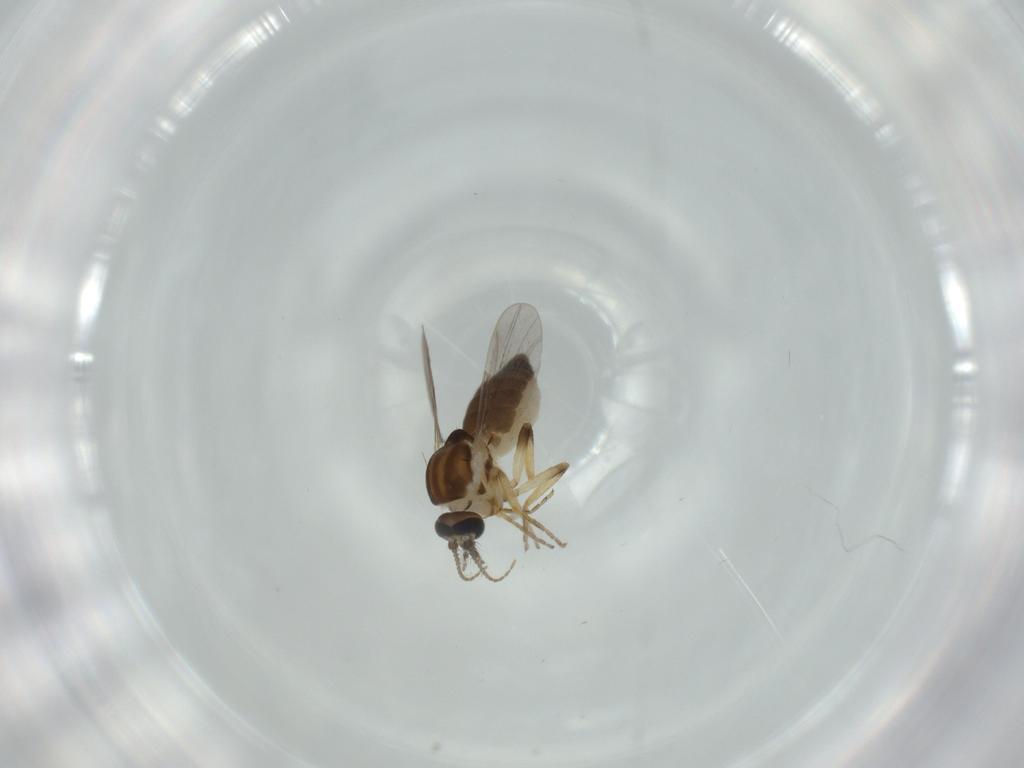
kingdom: Animalia
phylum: Arthropoda
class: Insecta
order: Diptera
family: Ceratopogonidae
